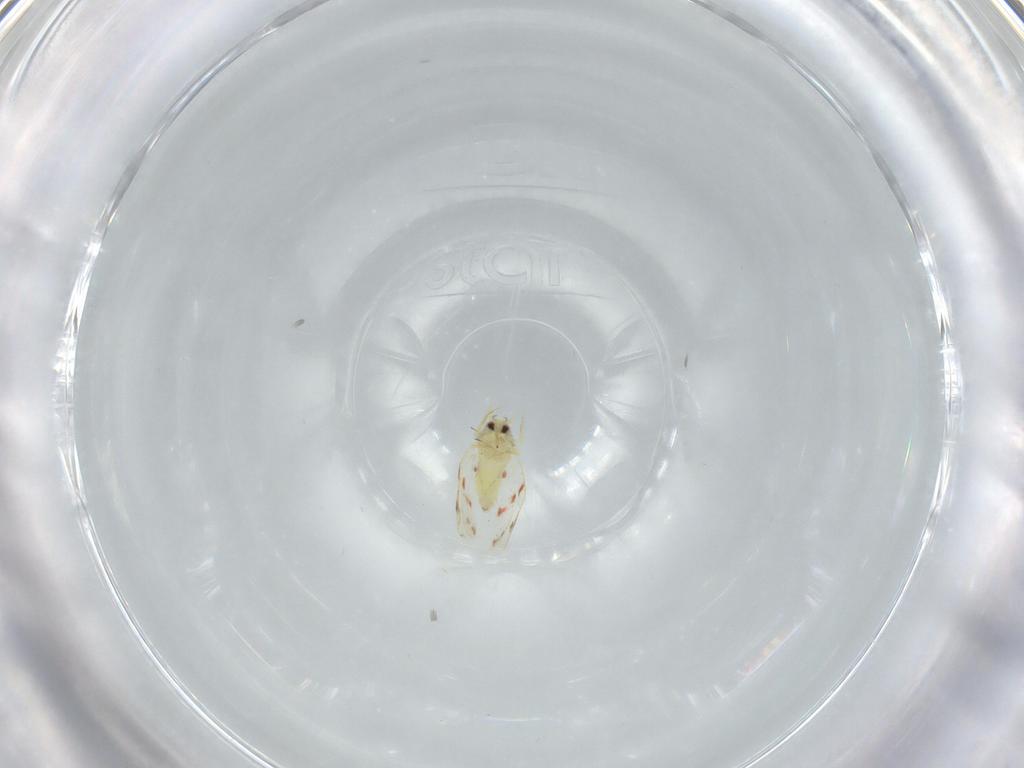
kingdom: Animalia
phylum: Arthropoda
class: Insecta
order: Hemiptera
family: Aleyrodidae
